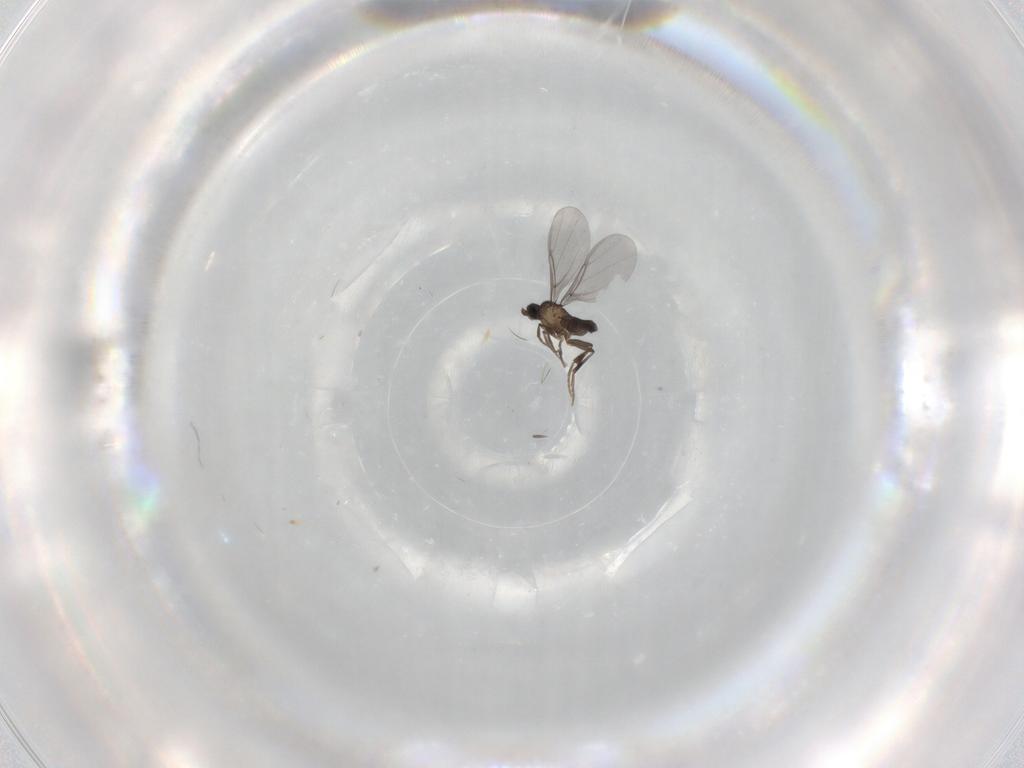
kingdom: Animalia
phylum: Arthropoda
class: Insecta
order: Diptera
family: Phoridae
